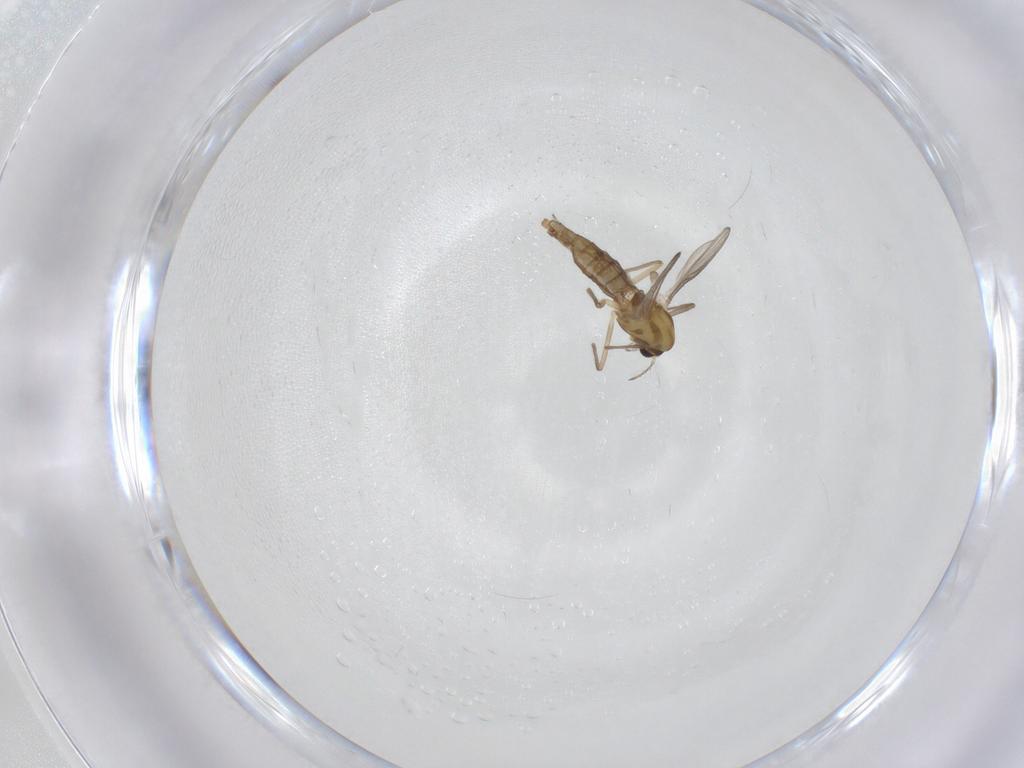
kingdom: Animalia
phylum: Arthropoda
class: Insecta
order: Diptera
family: Chironomidae
